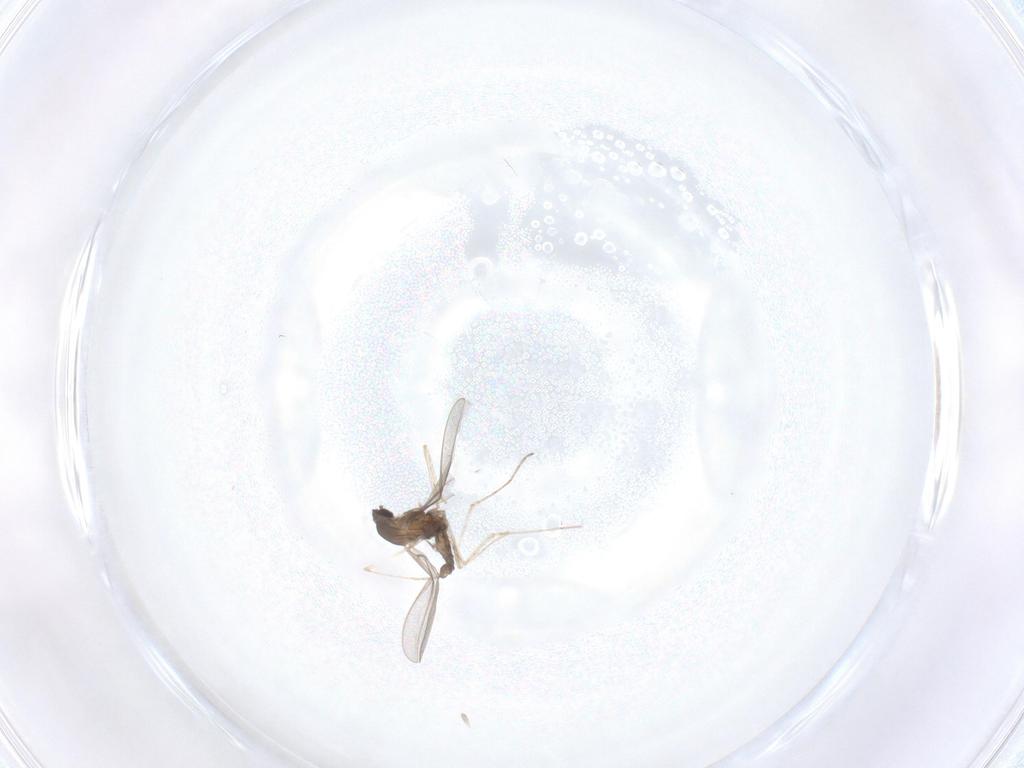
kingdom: Animalia
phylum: Arthropoda
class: Insecta
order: Diptera
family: Cecidomyiidae
